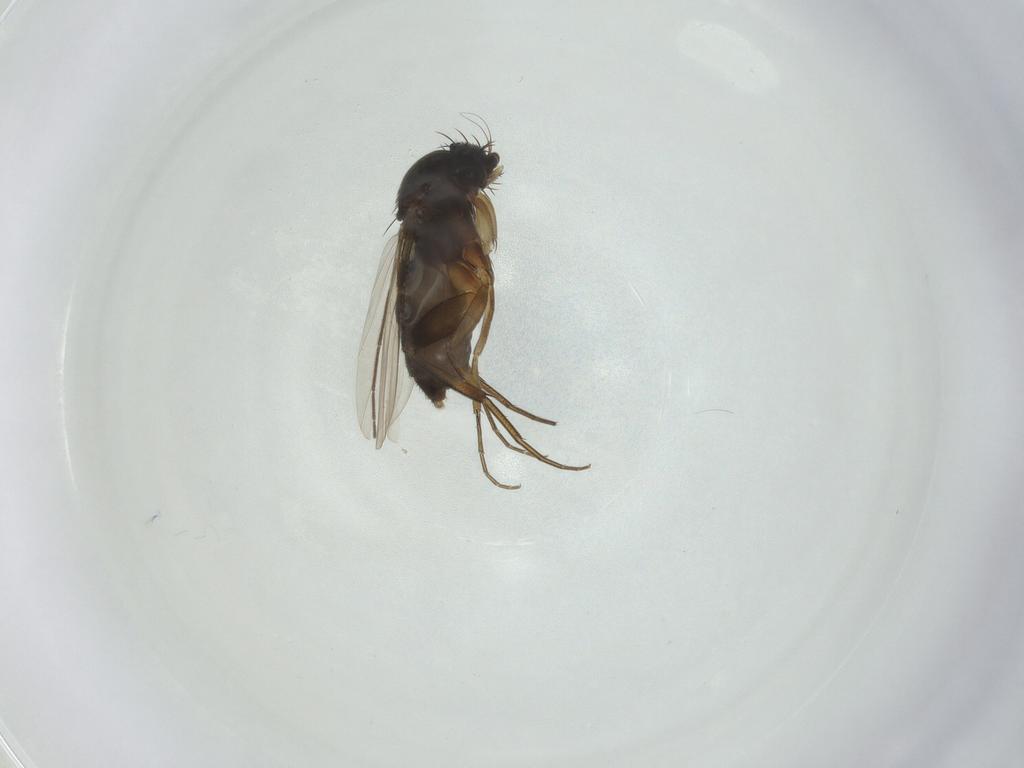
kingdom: Animalia
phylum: Arthropoda
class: Insecta
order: Diptera
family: Phoridae
